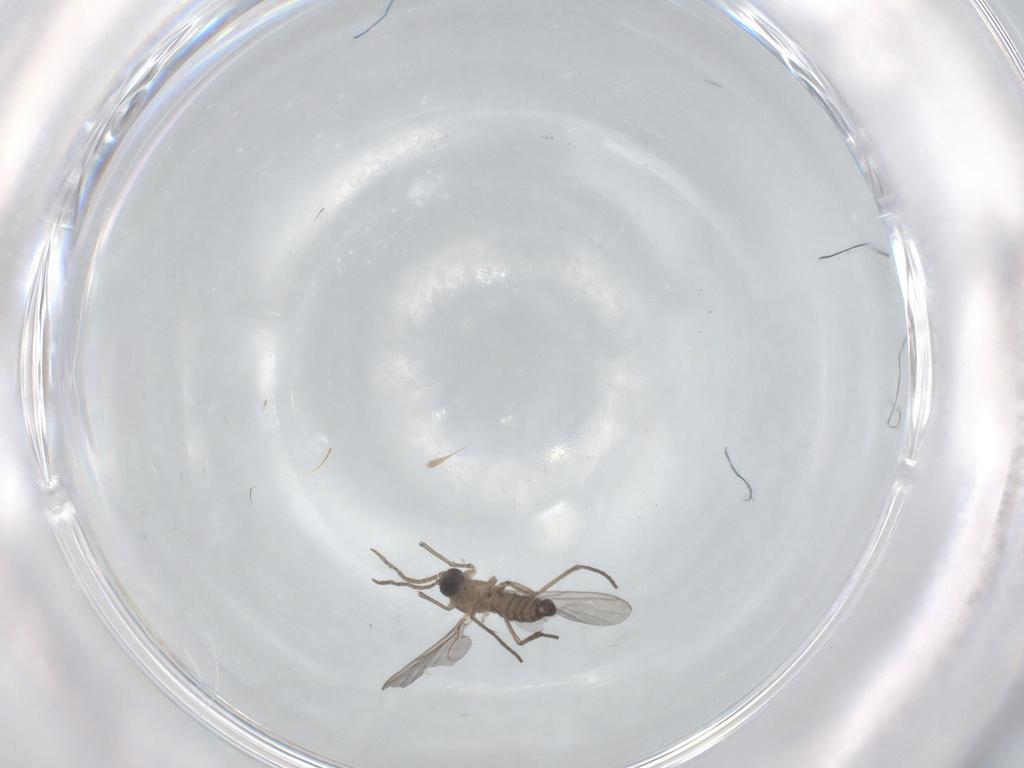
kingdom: Animalia
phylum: Arthropoda
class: Insecta
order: Diptera
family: Sciaridae
